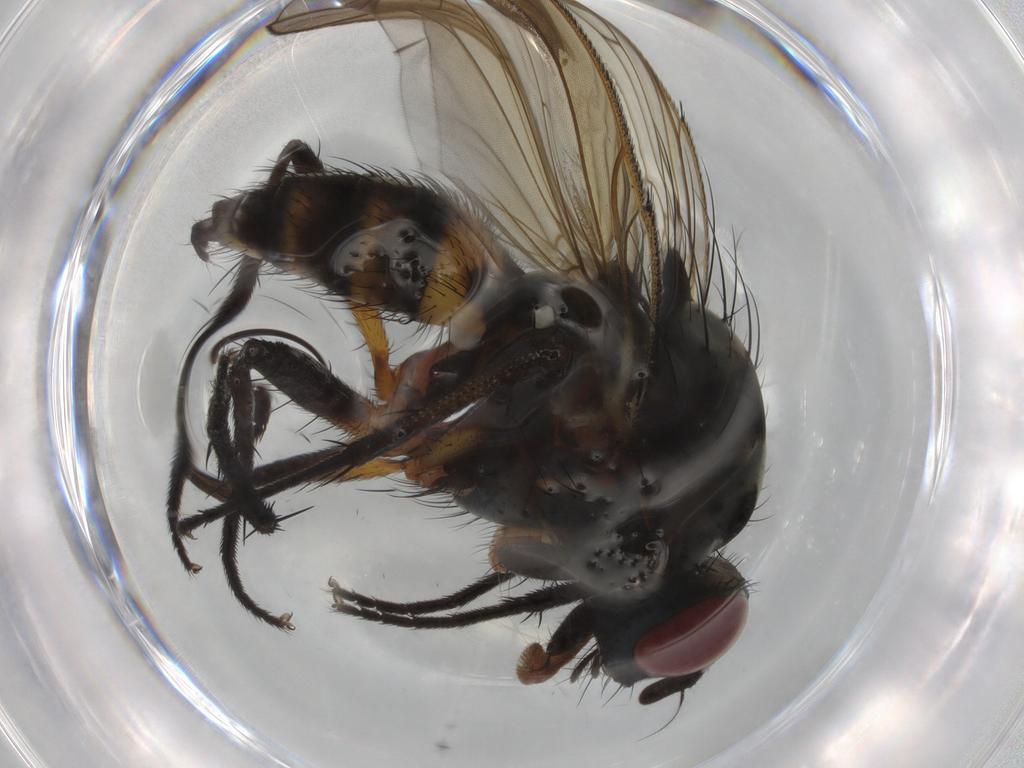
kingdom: Animalia
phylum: Arthropoda
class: Insecta
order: Diptera
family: Anthomyiidae
